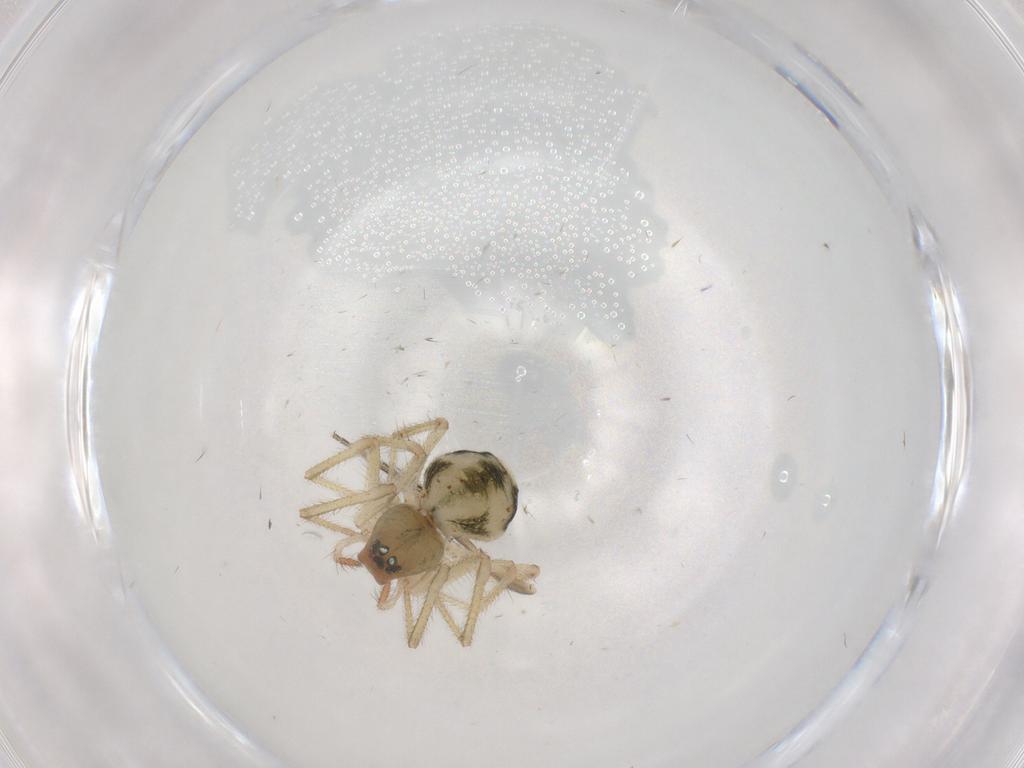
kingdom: Animalia
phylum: Arthropoda
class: Arachnida
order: Araneae
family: Linyphiidae
